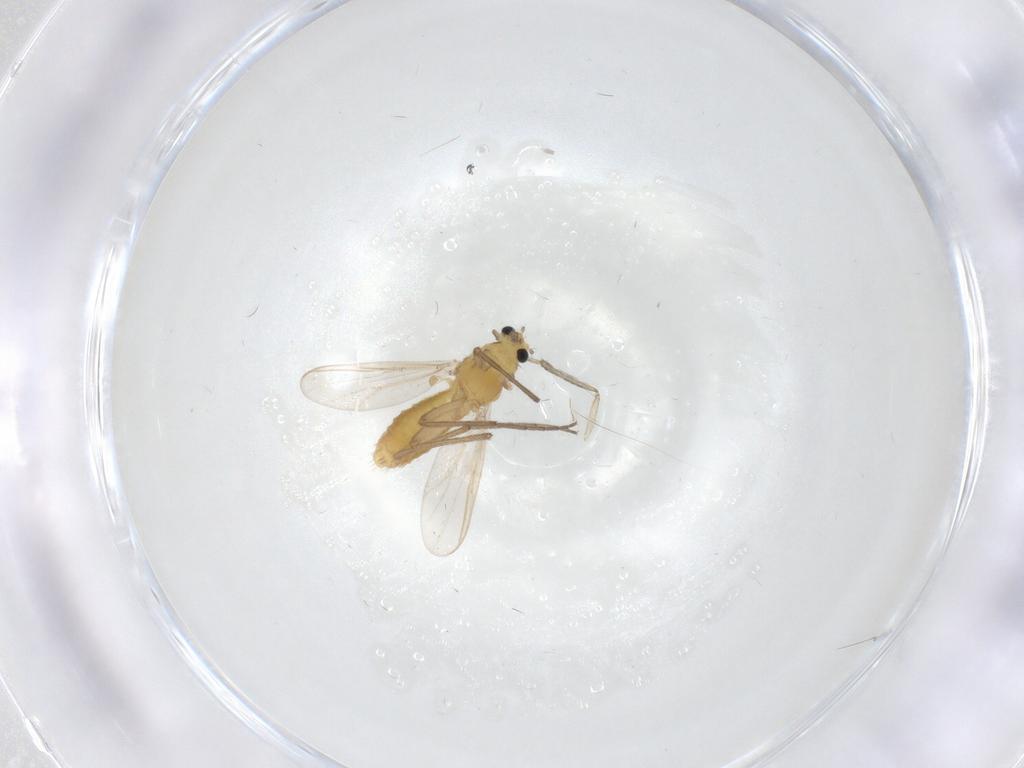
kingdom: Animalia
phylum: Arthropoda
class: Insecta
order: Diptera
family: Chironomidae
